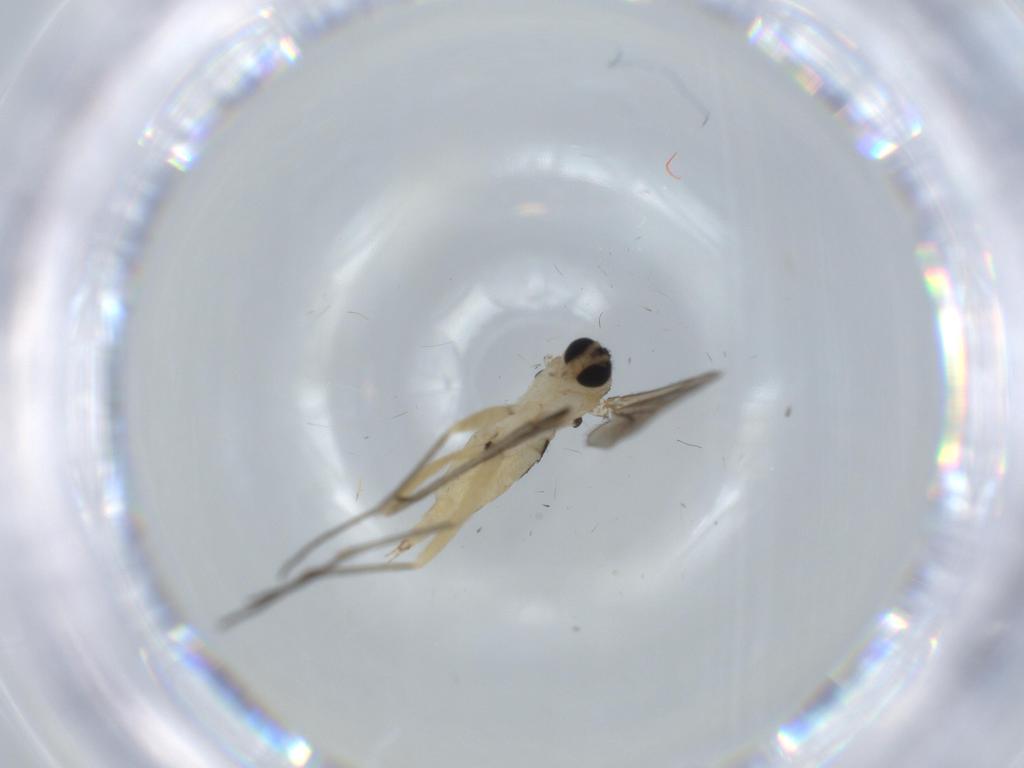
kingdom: Animalia
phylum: Arthropoda
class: Insecta
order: Diptera
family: Sciaridae
